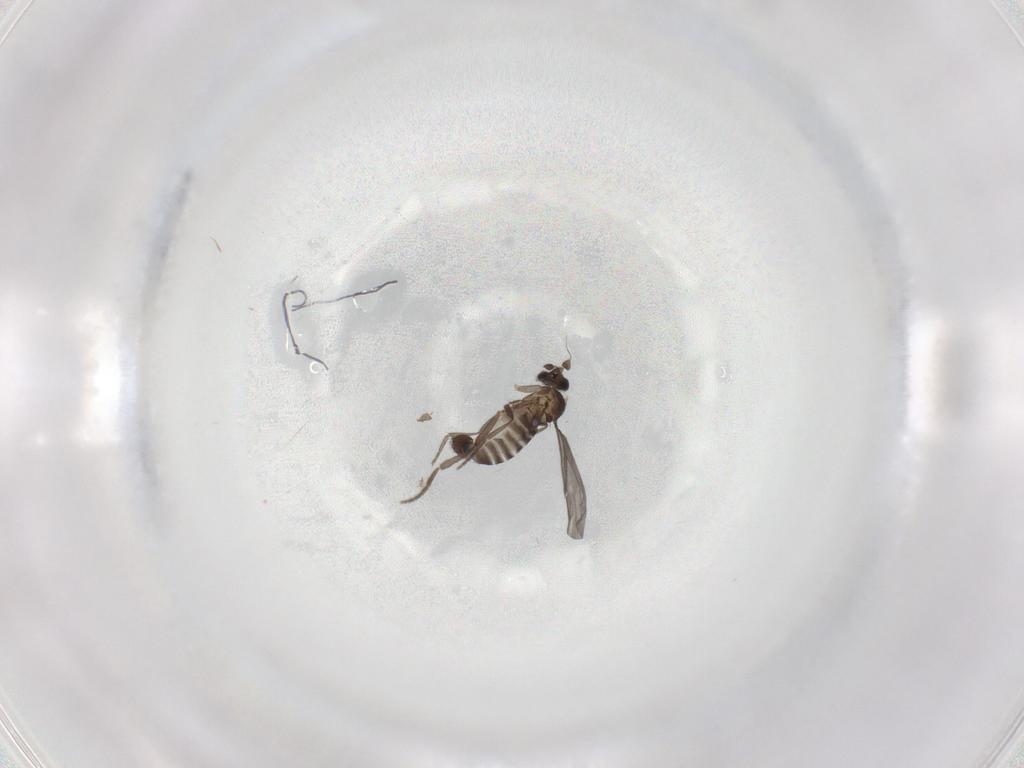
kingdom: Animalia
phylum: Arthropoda
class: Insecta
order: Diptera
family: Phoridae
